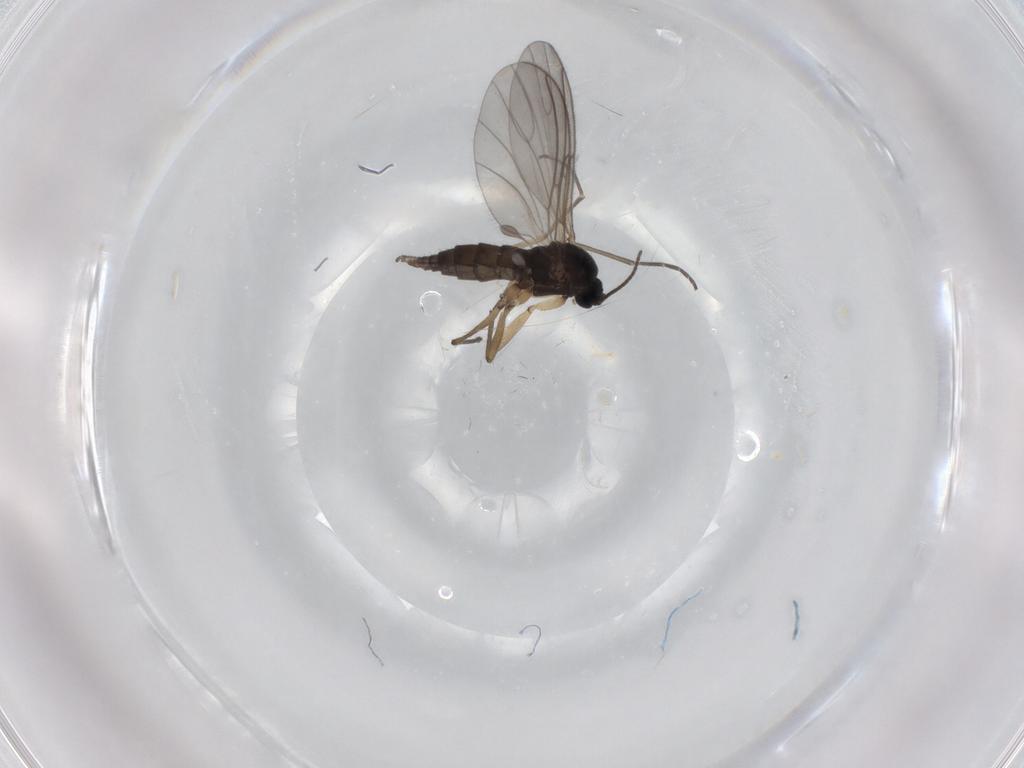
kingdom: Animalia
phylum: Arthropoda
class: Insecta
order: Diptera
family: Sciaridae
